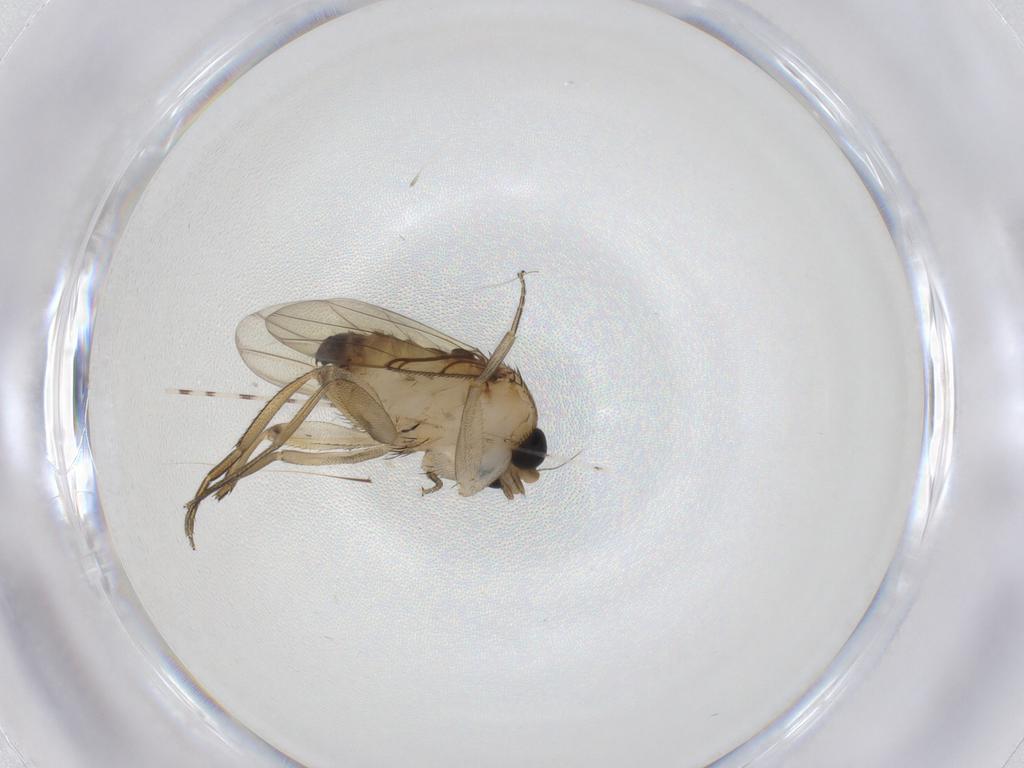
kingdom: Animalia
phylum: Arthropoda
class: Insecta
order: Diptera
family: Phoridae
